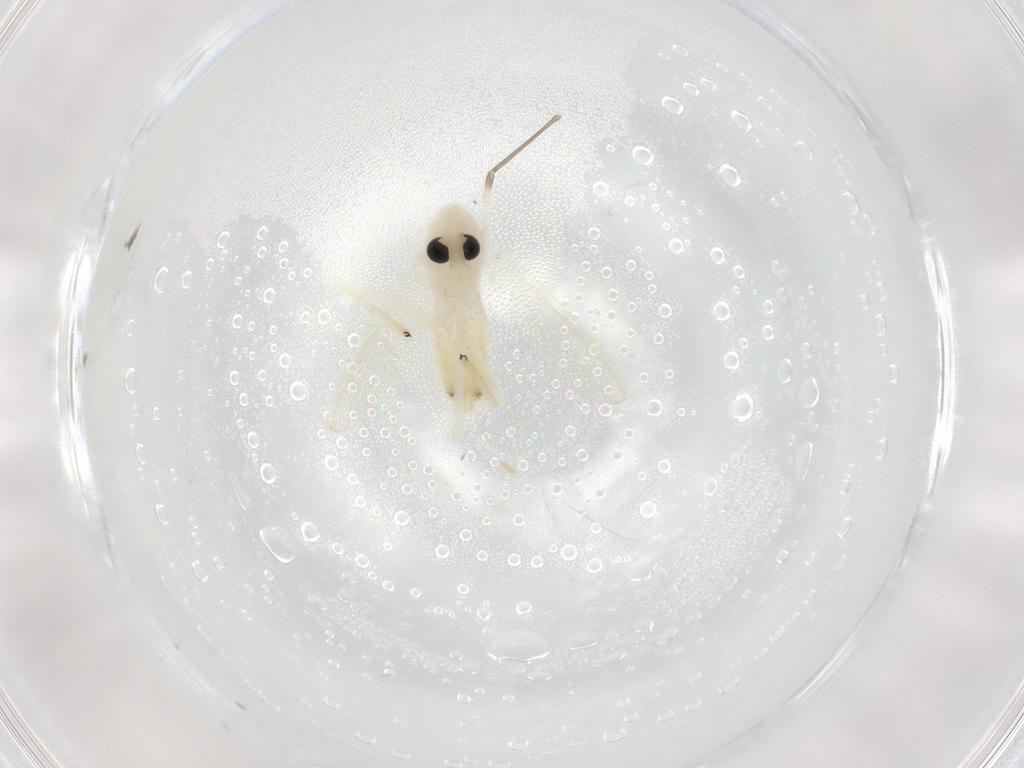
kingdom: Animalia
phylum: Arthropoda
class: Insecta
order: Diptera
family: Chironomidae
